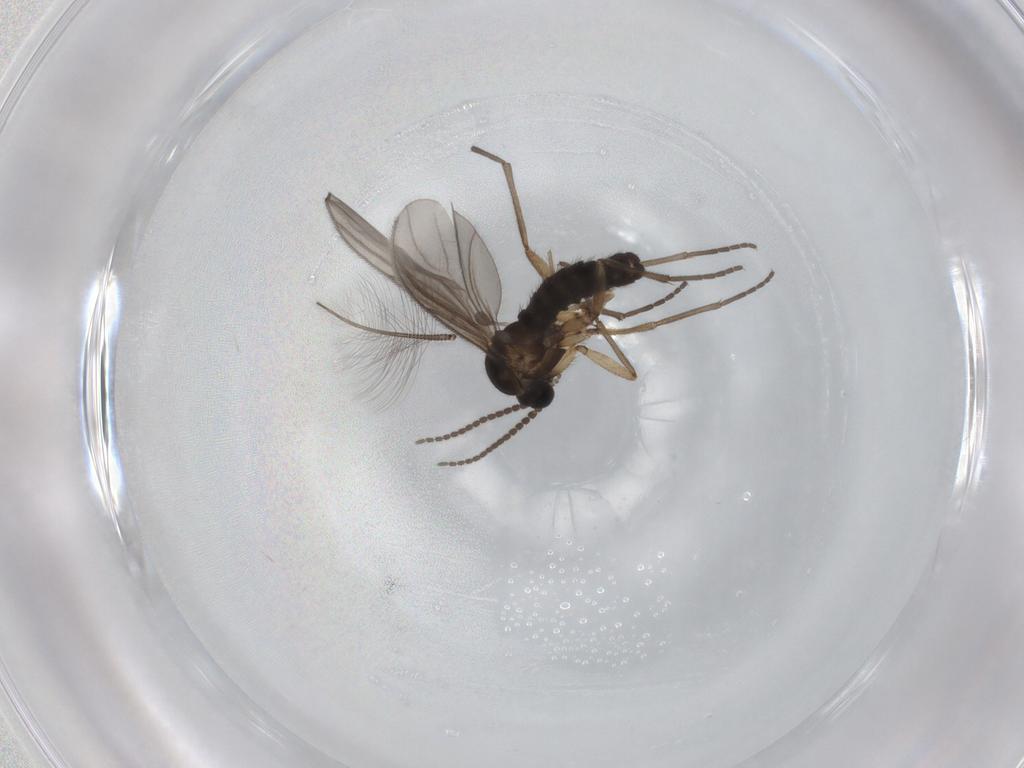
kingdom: Animalia
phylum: Arthropoda
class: Insecta
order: Diptera
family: Sciaridae
